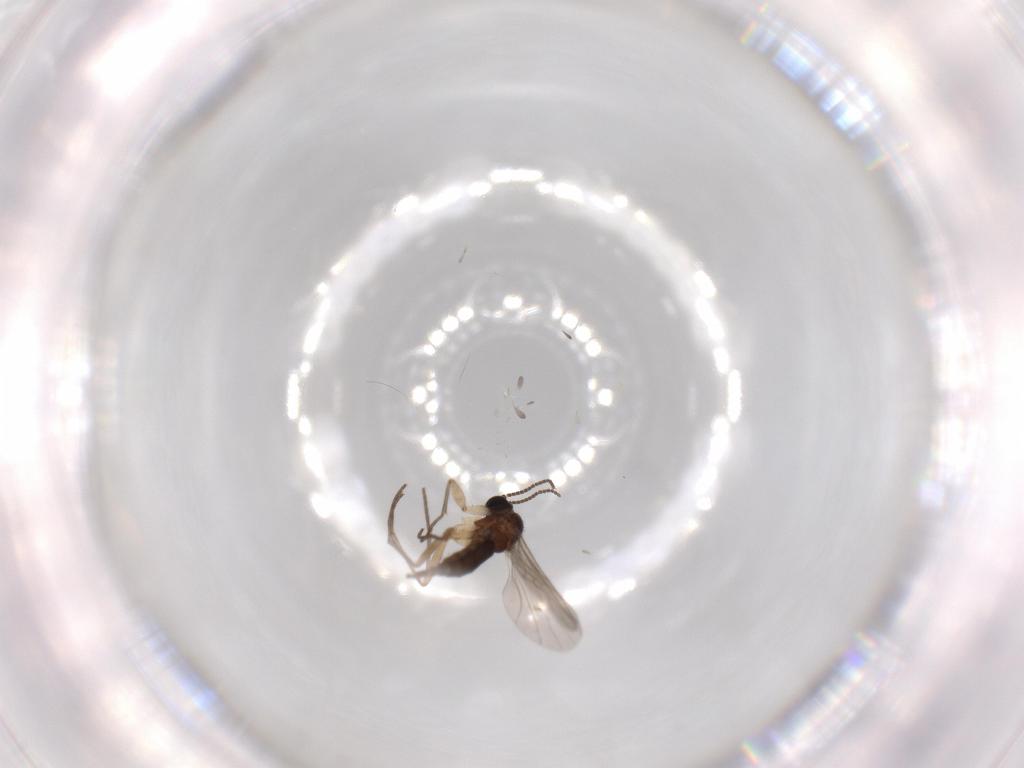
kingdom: Animalia
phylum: Arthropoda
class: Insecta
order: Diptera
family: Sciaridae
